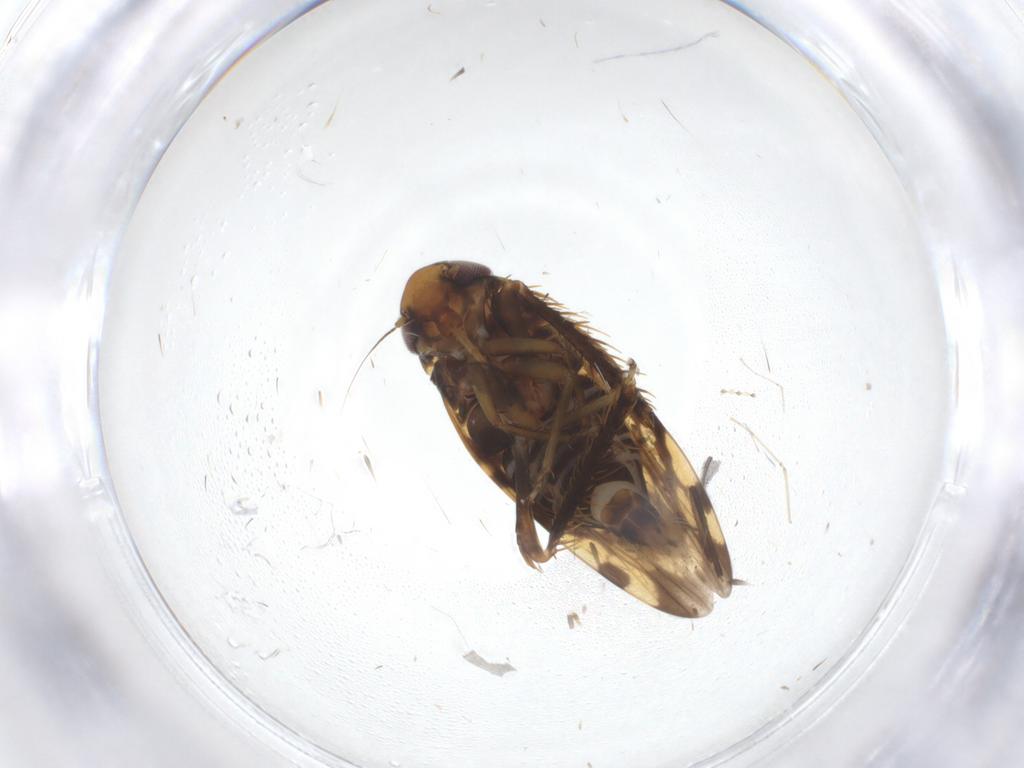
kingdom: Animalia
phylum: Arthropoda
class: Insecta
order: Hemiptera
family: Cicadellidae
